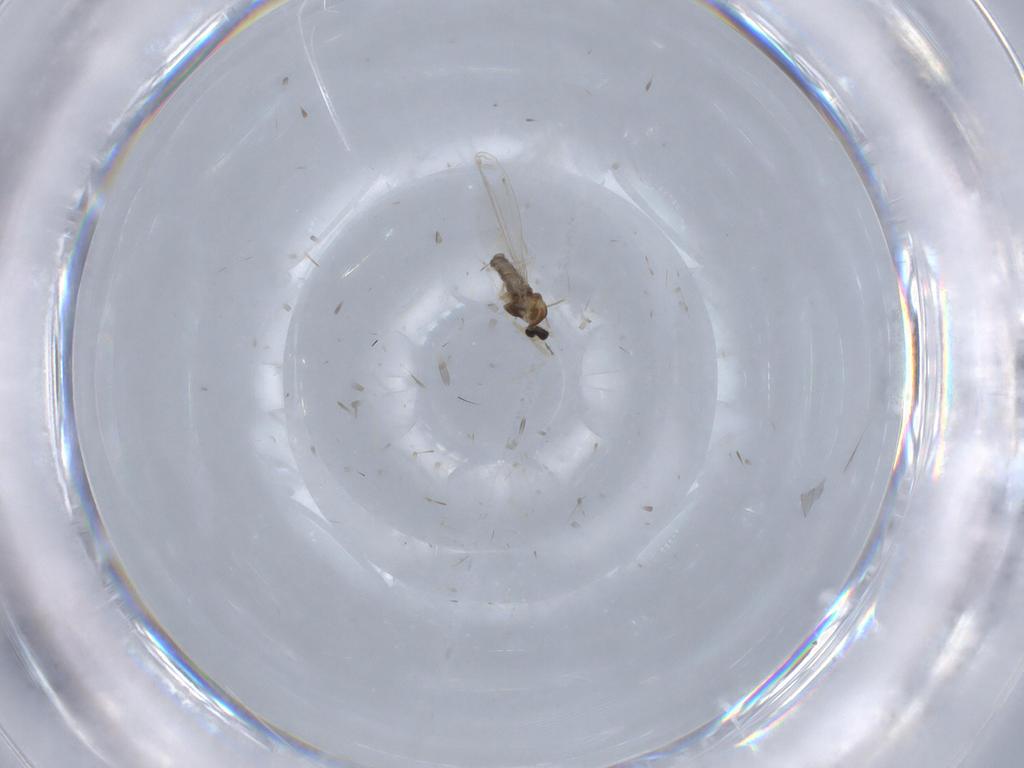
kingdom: Animalia
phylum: Arthropoda
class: Insecta
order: Diptera
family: Cecidomyiidae
